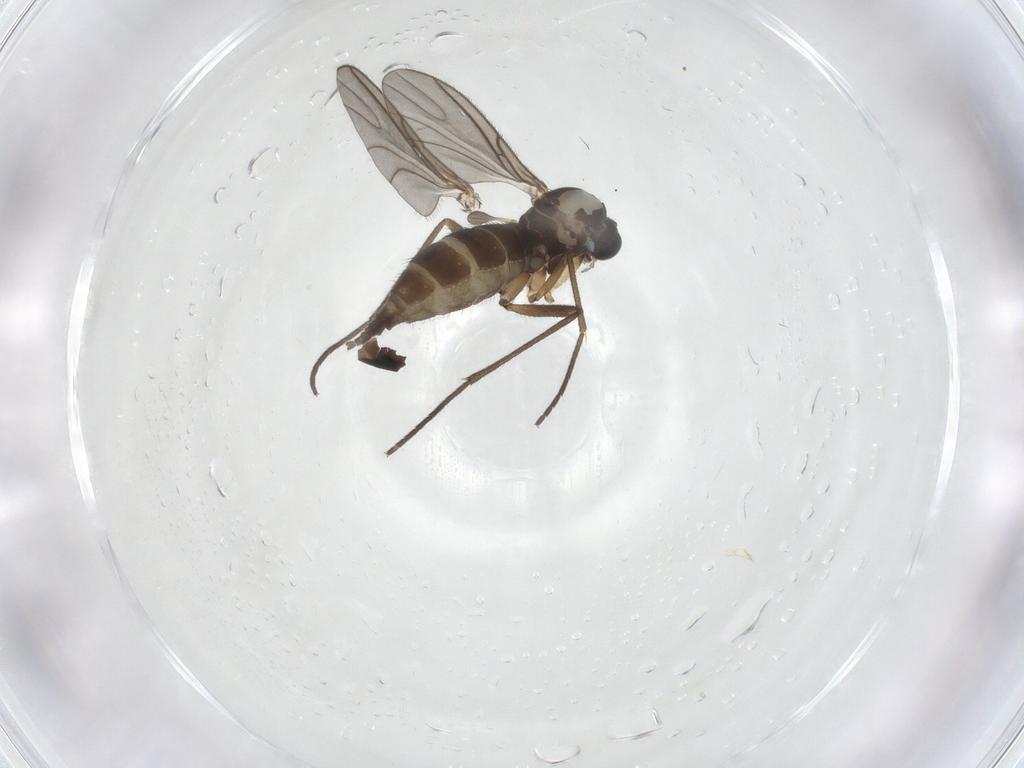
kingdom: Animalia
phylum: Arthropoda
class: Insecta
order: Diptera
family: Sciaridae
